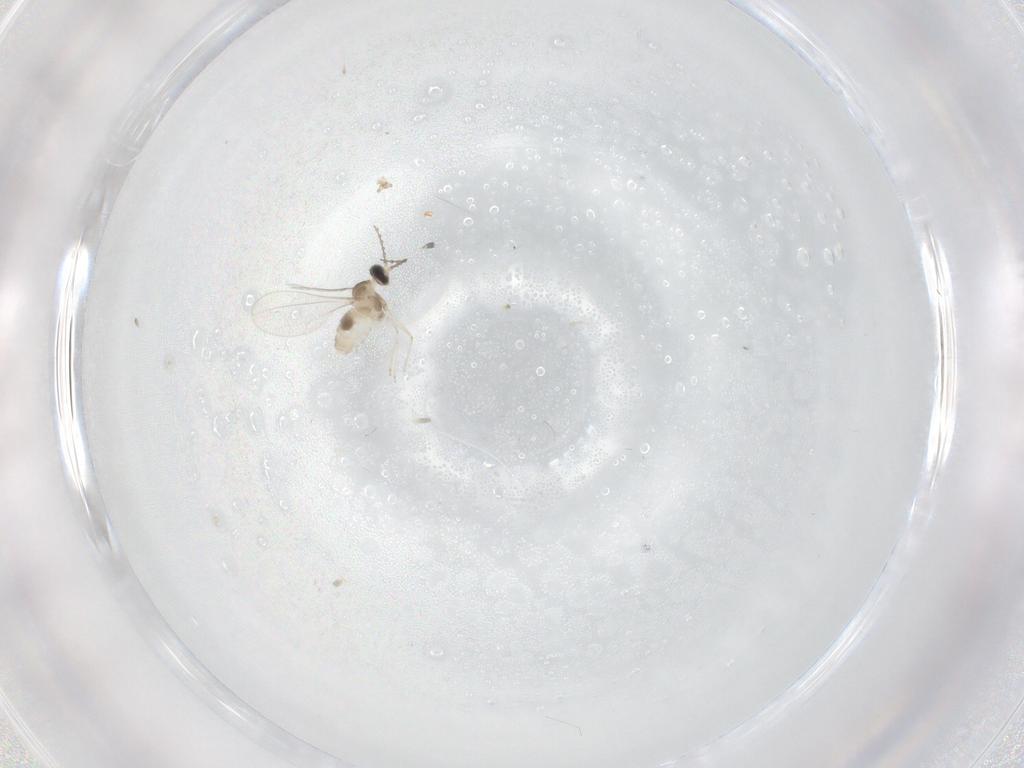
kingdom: Animalia
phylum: Arthropoda
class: Insecta
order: Diptera
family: Cecidomyiidae
